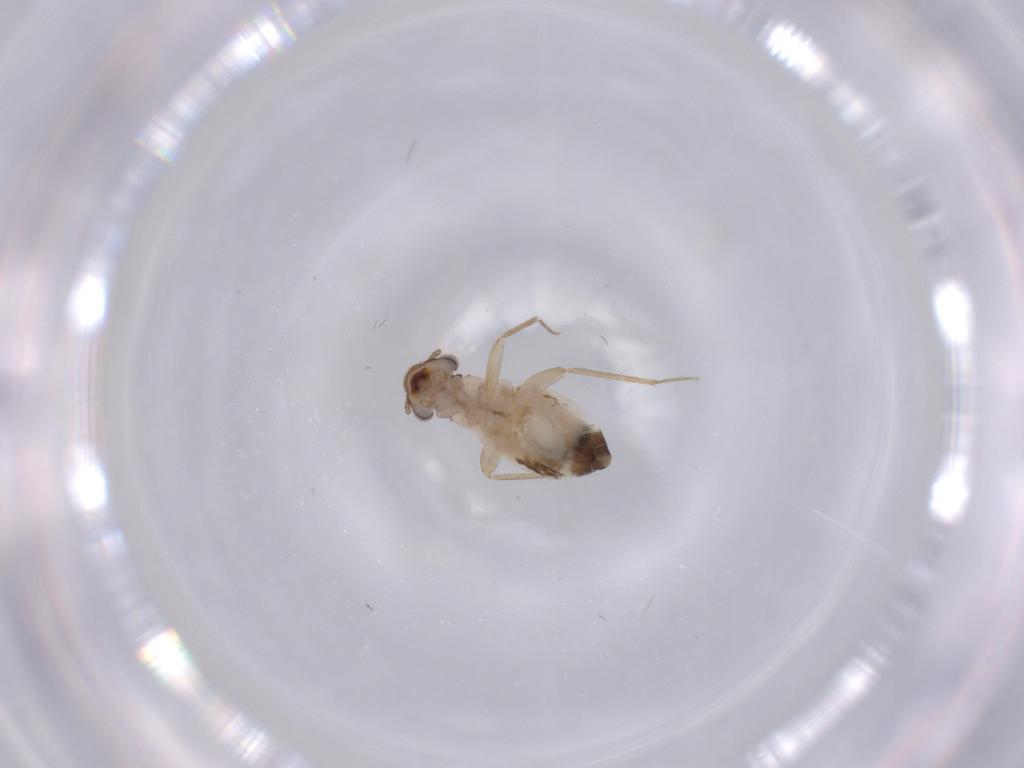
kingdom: Animalia
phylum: Arthropoda
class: Insecta
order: Psocodea
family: Lepidopsocidae
